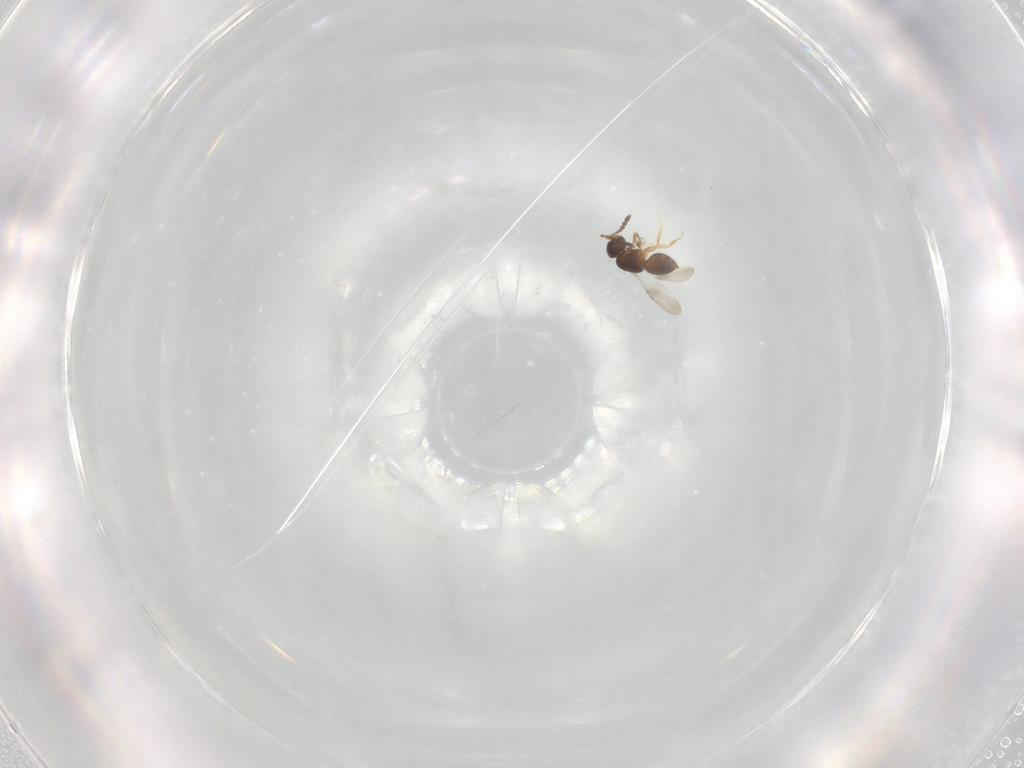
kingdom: Animalia
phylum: Arthropoda
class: Insecta
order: Hymenoptera
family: Pteromalidae
